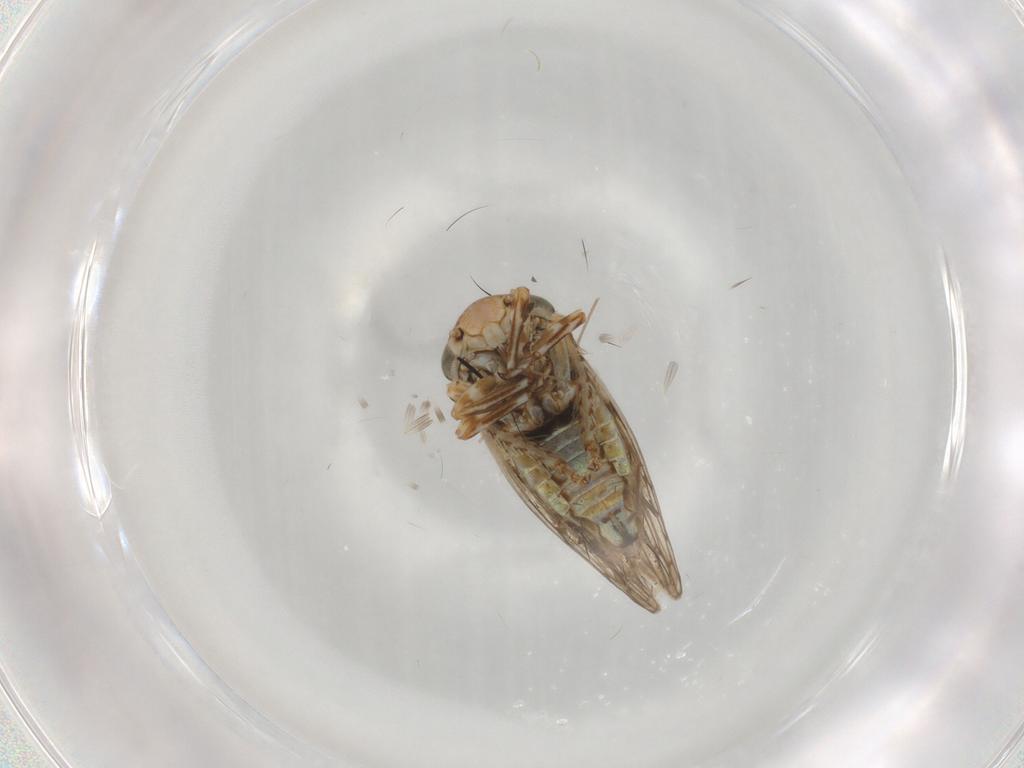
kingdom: Animalia
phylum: Arthropoda
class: Insecta
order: Hemiptera
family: Cicadellidae
